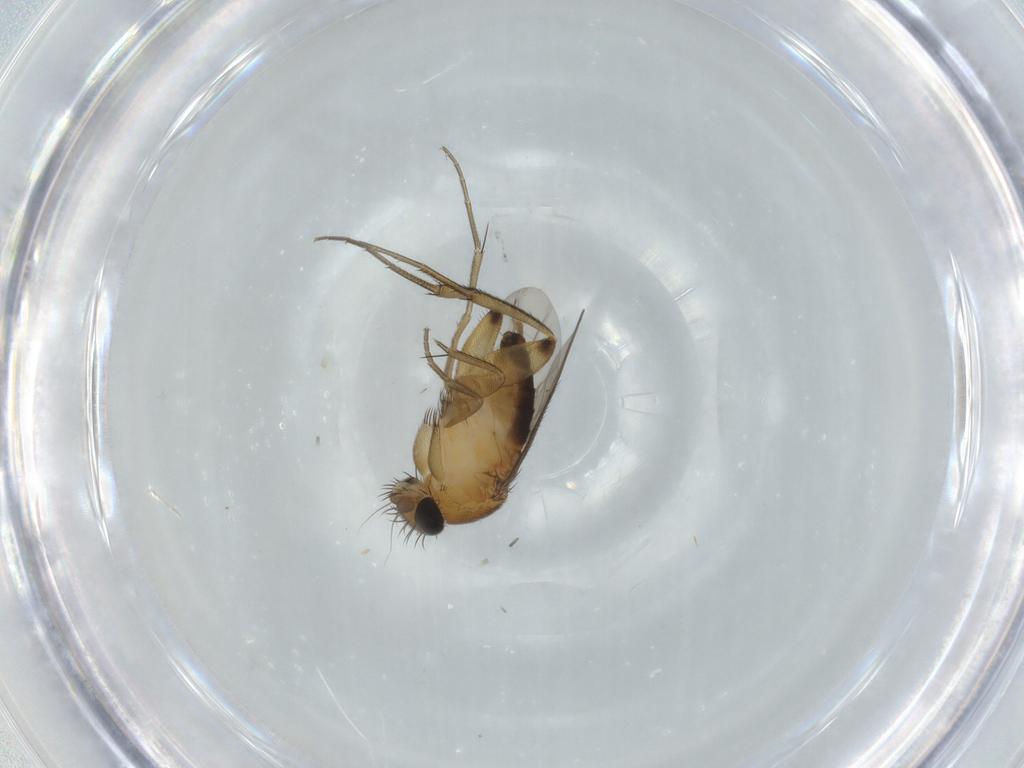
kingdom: Animalia
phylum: Arthropoda
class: Insecta
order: Diptera
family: Phoridae
